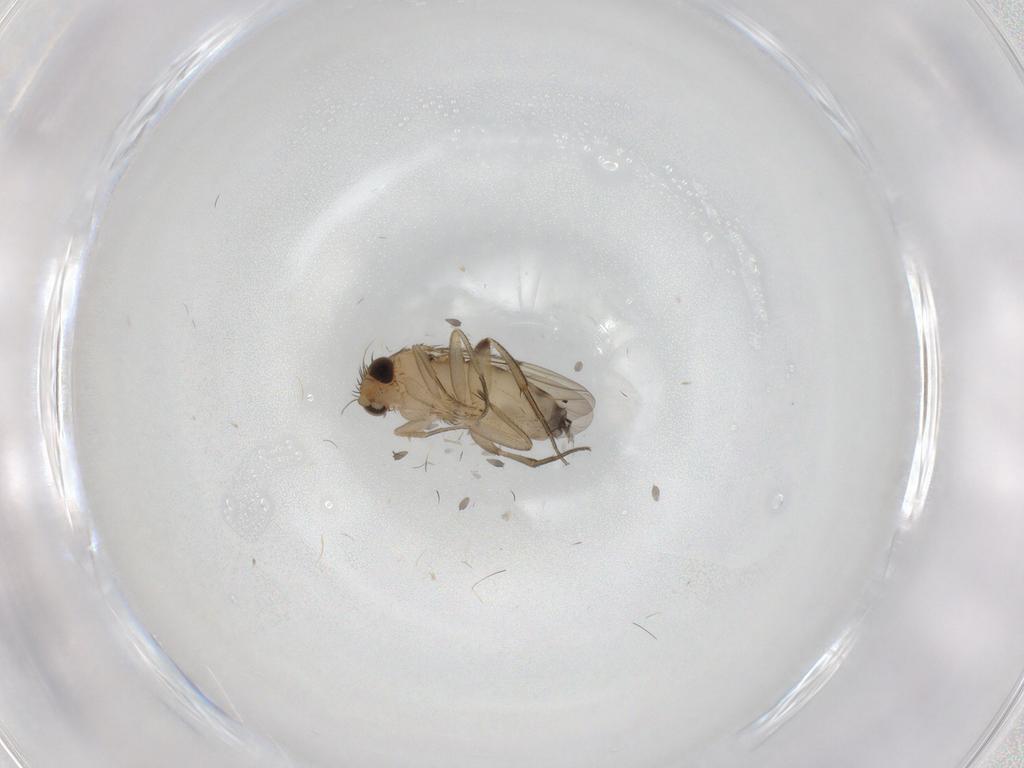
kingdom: Animalia
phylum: Arthropoda
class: Insecta
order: Diptera
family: Phoridae
